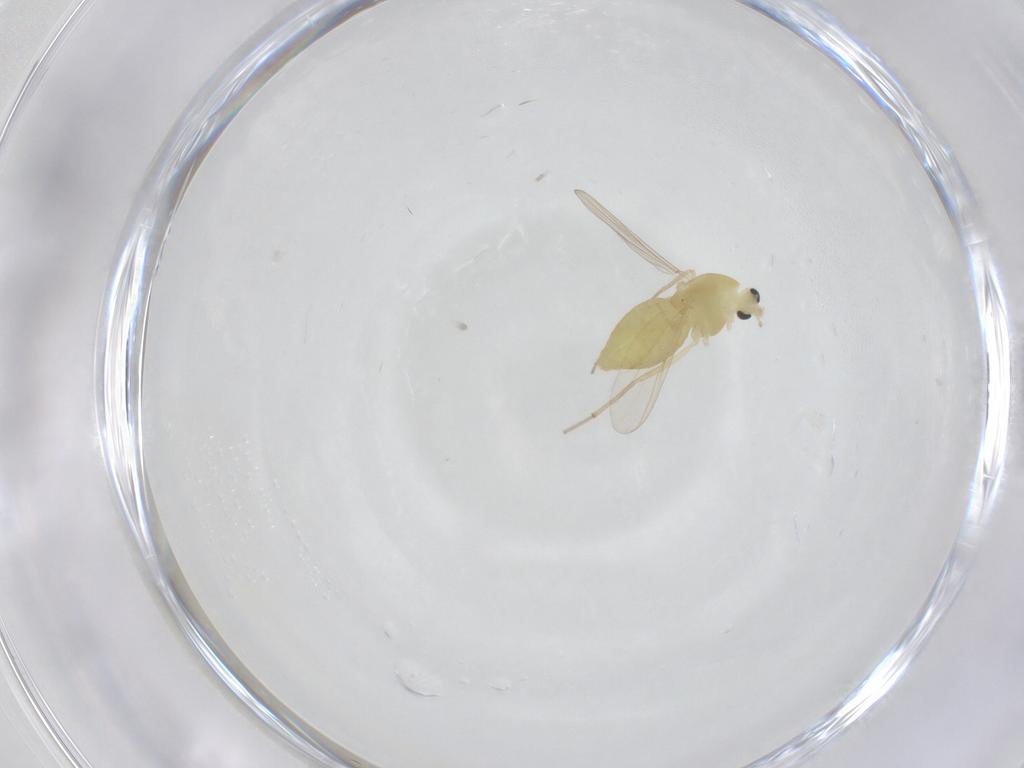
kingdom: Animalia
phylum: Arthropoda
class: Insecta
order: Diptera
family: Chironomidae
